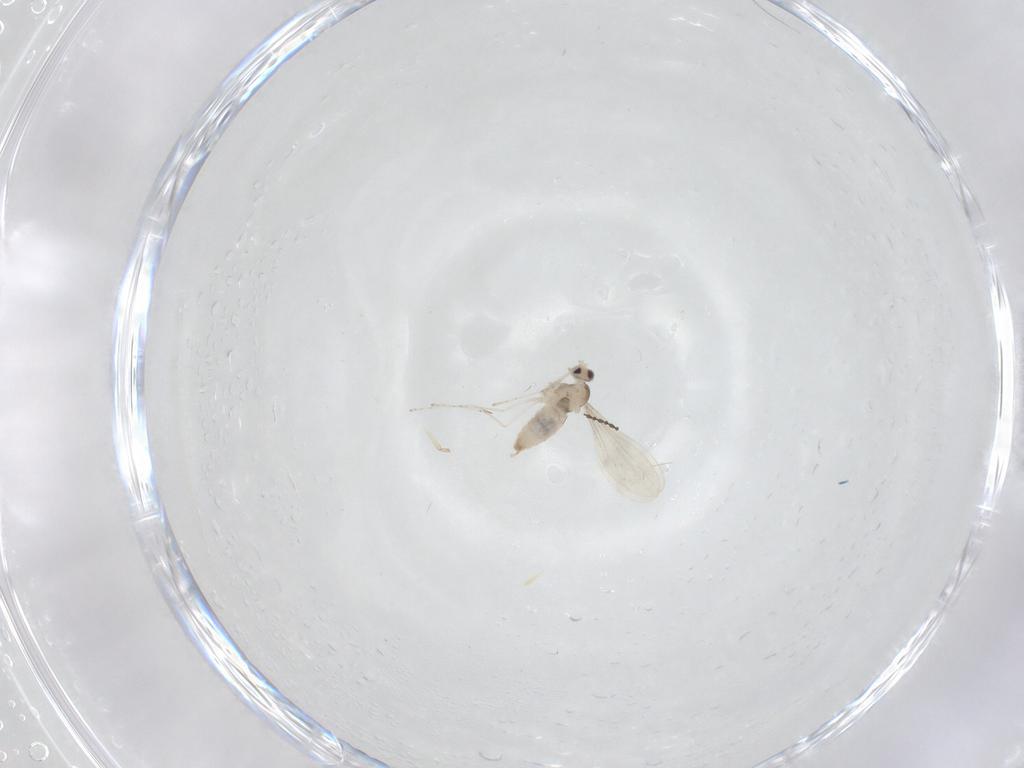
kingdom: Animalia
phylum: Arthropoda
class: Insecta
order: Diptera
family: Cecidomyiidae
